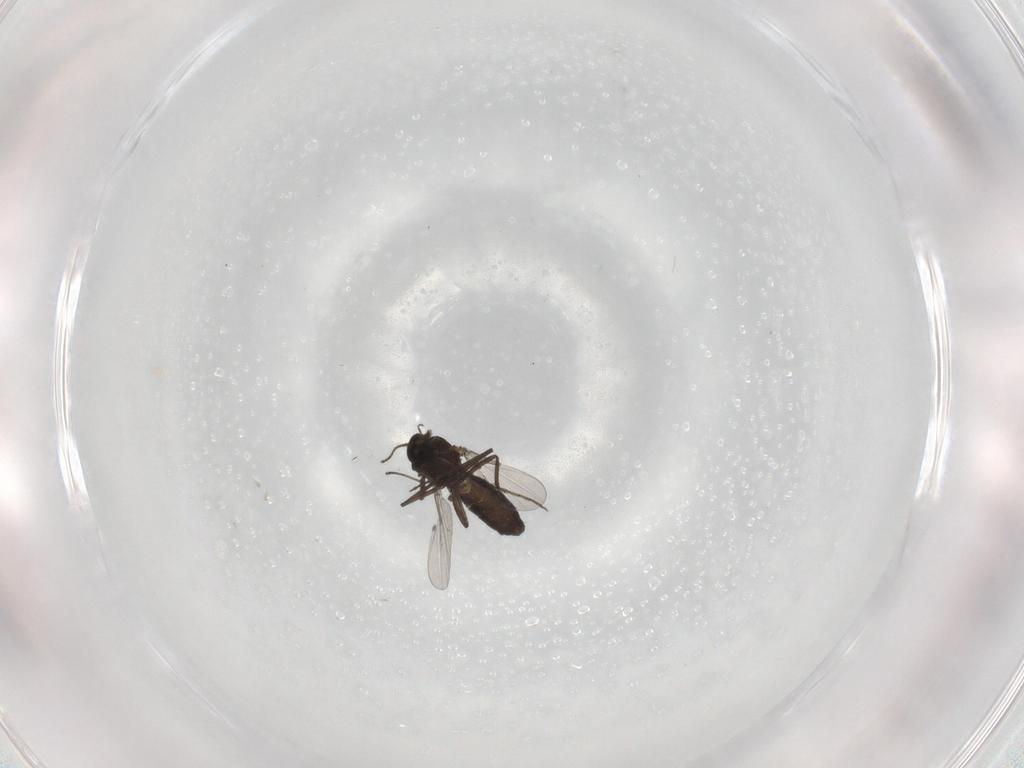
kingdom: Animalia
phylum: Arthropoda
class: Insecta
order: Diptera
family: Ceratopogonidae
